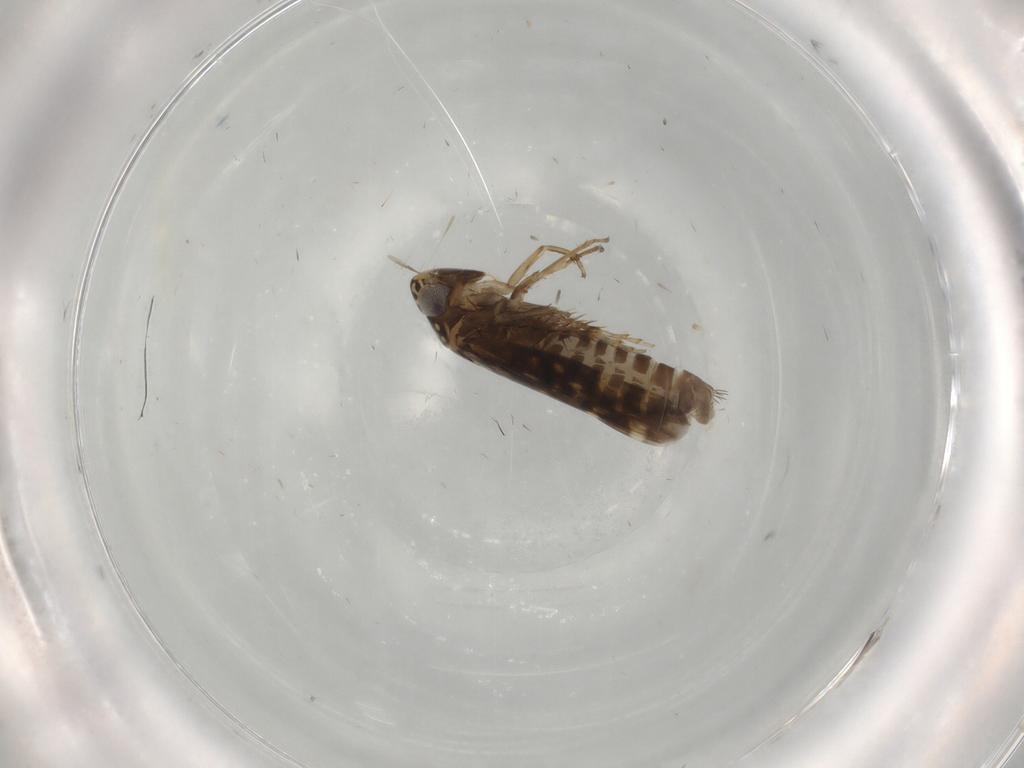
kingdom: Animalia
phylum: Arthropoda
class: Insecta
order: Hemiptera
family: Cicadellidae
